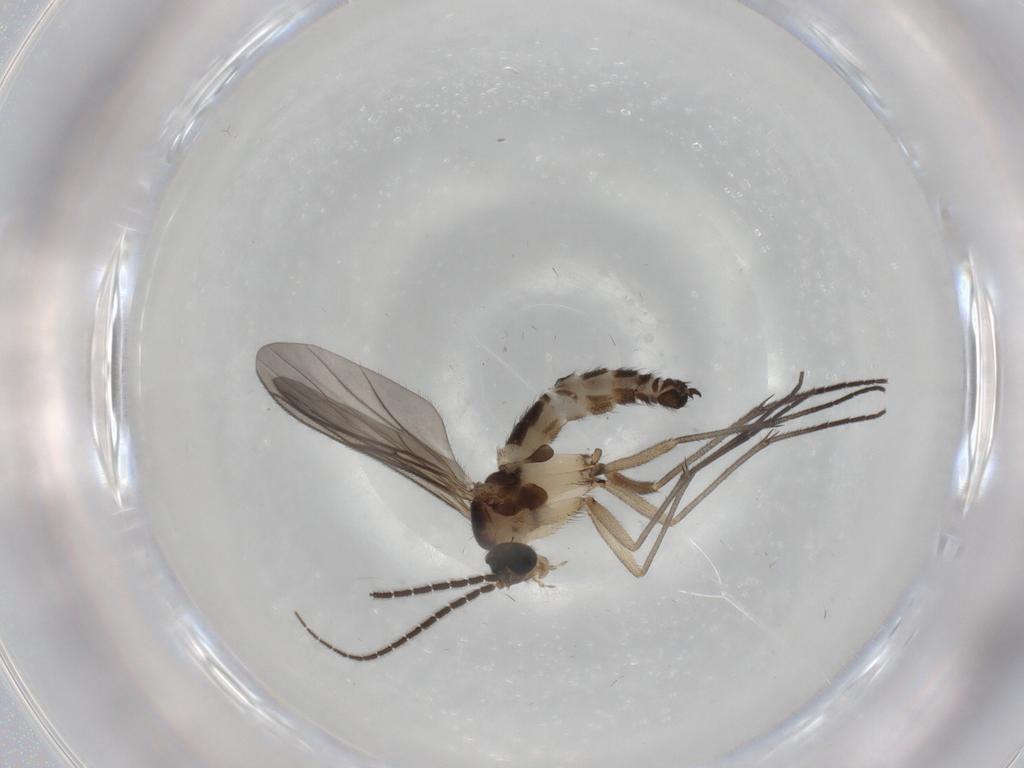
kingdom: Animalia
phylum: Arthropoda
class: Insecta
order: Diptera
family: Sciaridae
